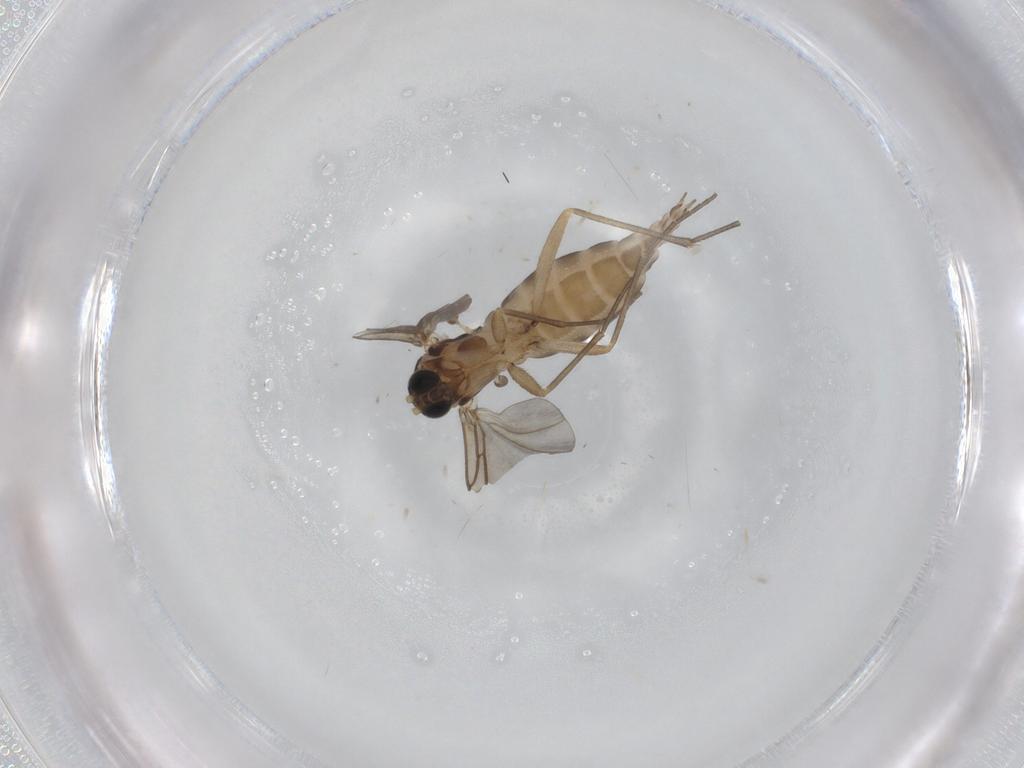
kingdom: Animalia
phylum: Arthropoda
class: Insecta
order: Diptera
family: Sciaridae
